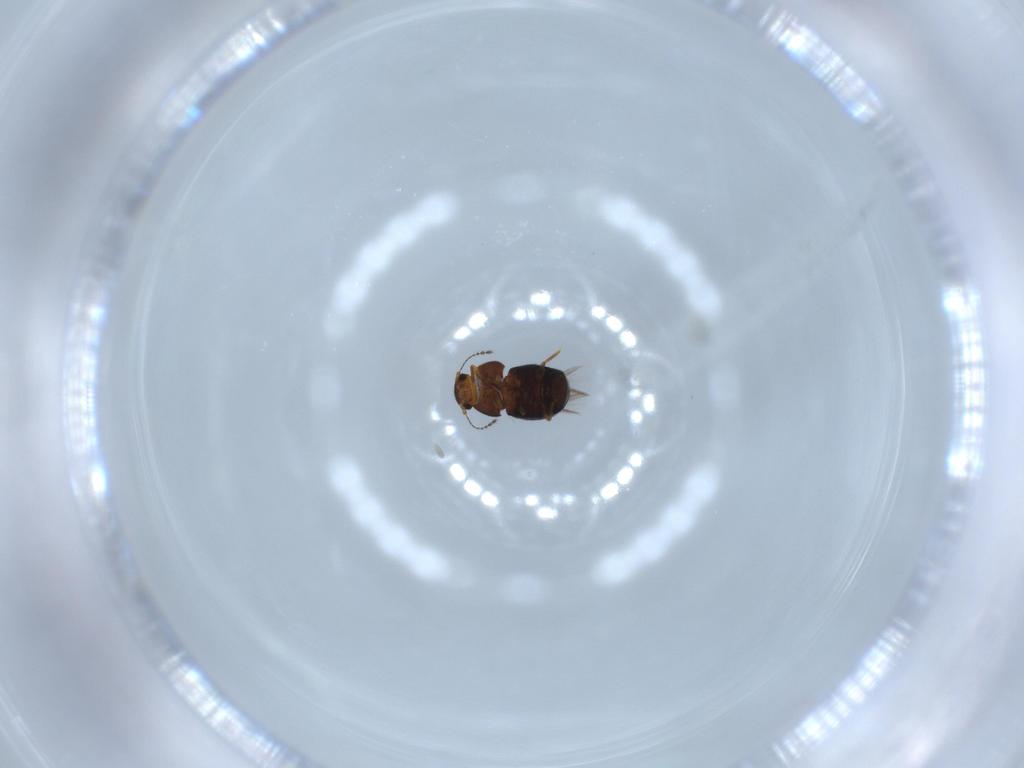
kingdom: Animalia
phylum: Arthropoda
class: Insecta
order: Coleoptera
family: Ptiliidae
